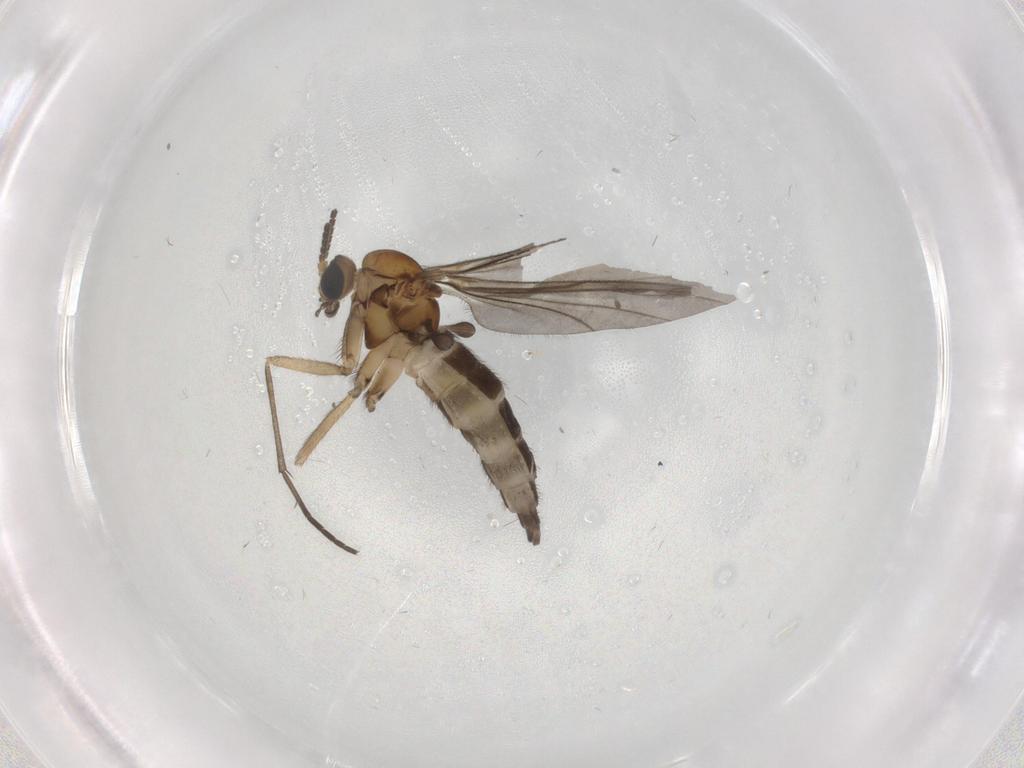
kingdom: Animalia
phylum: Arthropoda
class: Insecta
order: Diptera
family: Sciaridae
